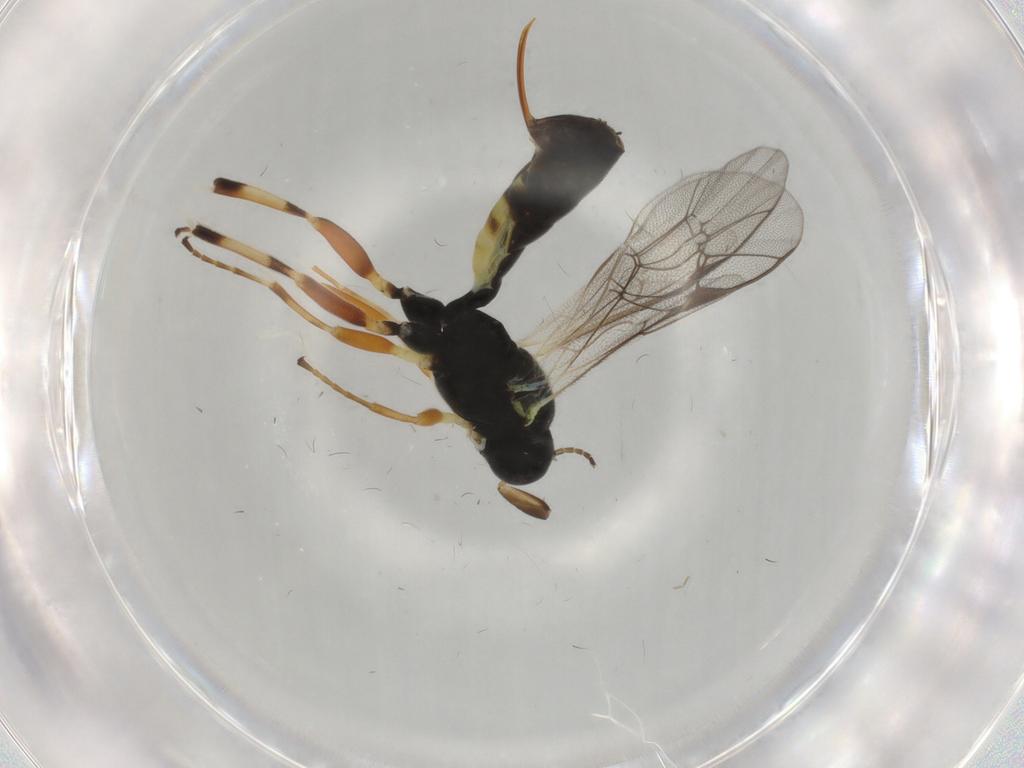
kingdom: Animalia
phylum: Arthropoda
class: Insecta
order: Hymenoptera
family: Ichneumonidae
